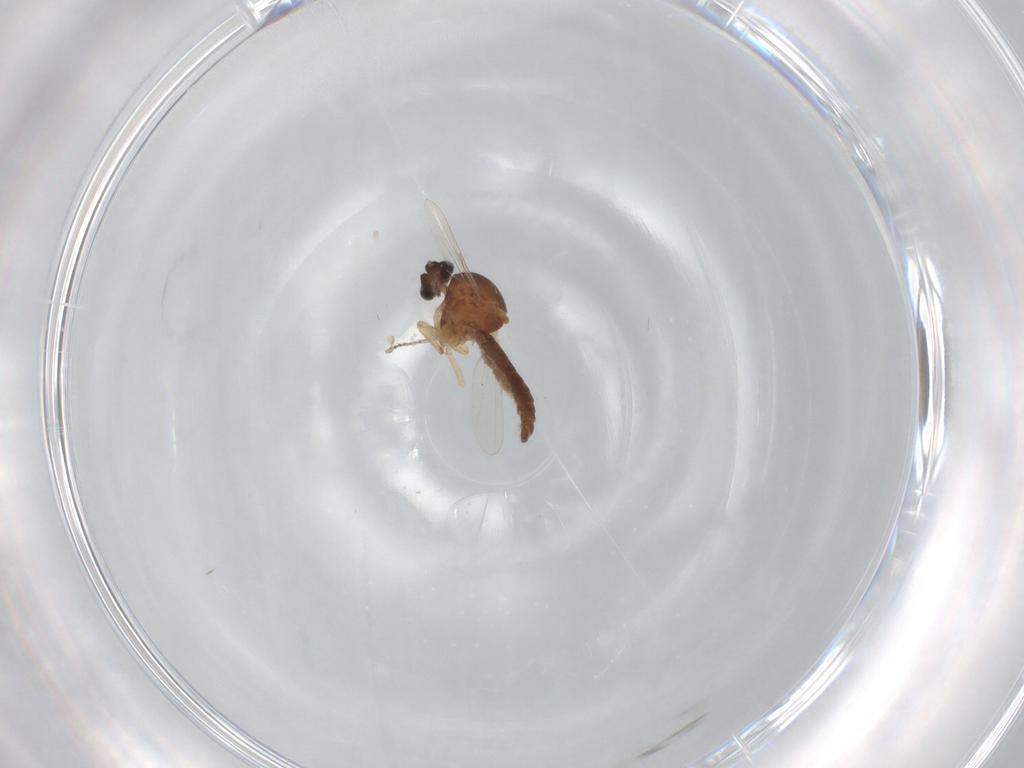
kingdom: Animalia
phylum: Arthropoda
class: Insecta
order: Diptera
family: Ceratopogonidae
